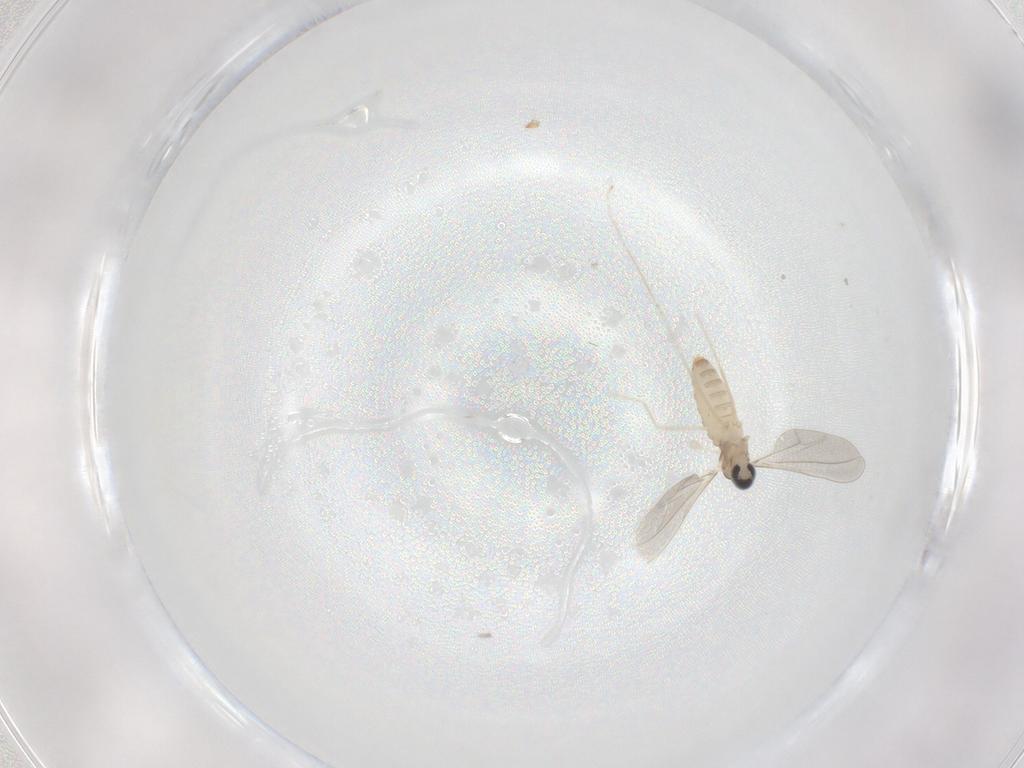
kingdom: Animalia
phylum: Arthropoda
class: Insecta
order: Diptera
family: Cecidomyiidae
